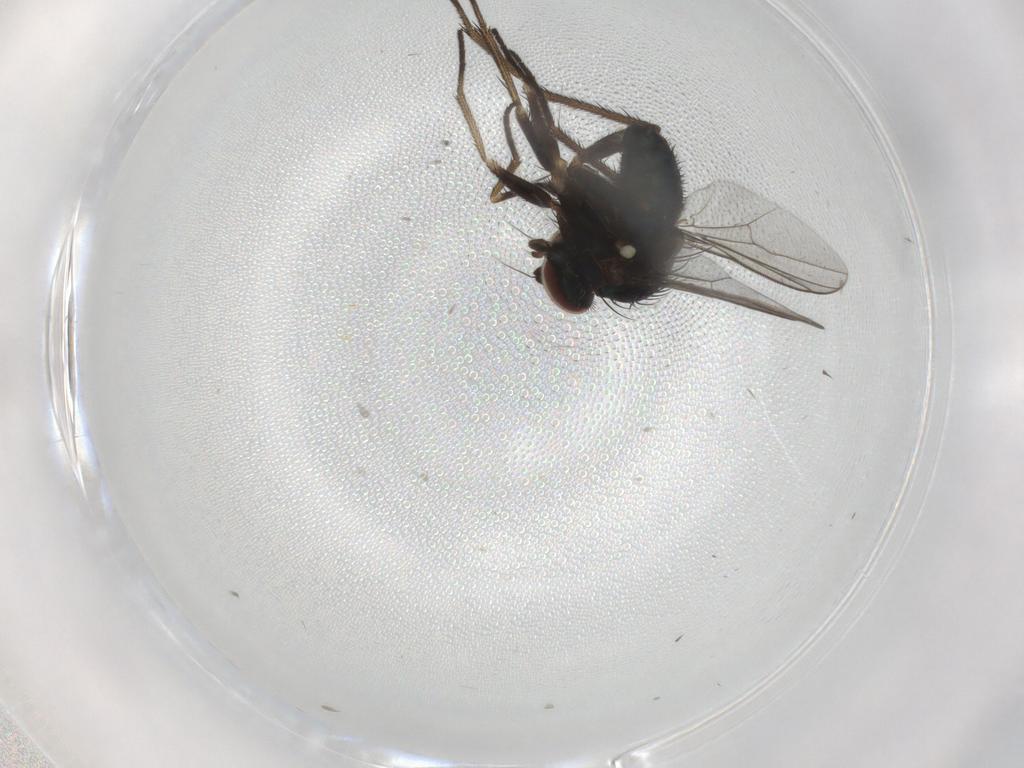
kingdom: Animalia
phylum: Arthropoda
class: Insecta
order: Diptera
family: Dolichopodidae
